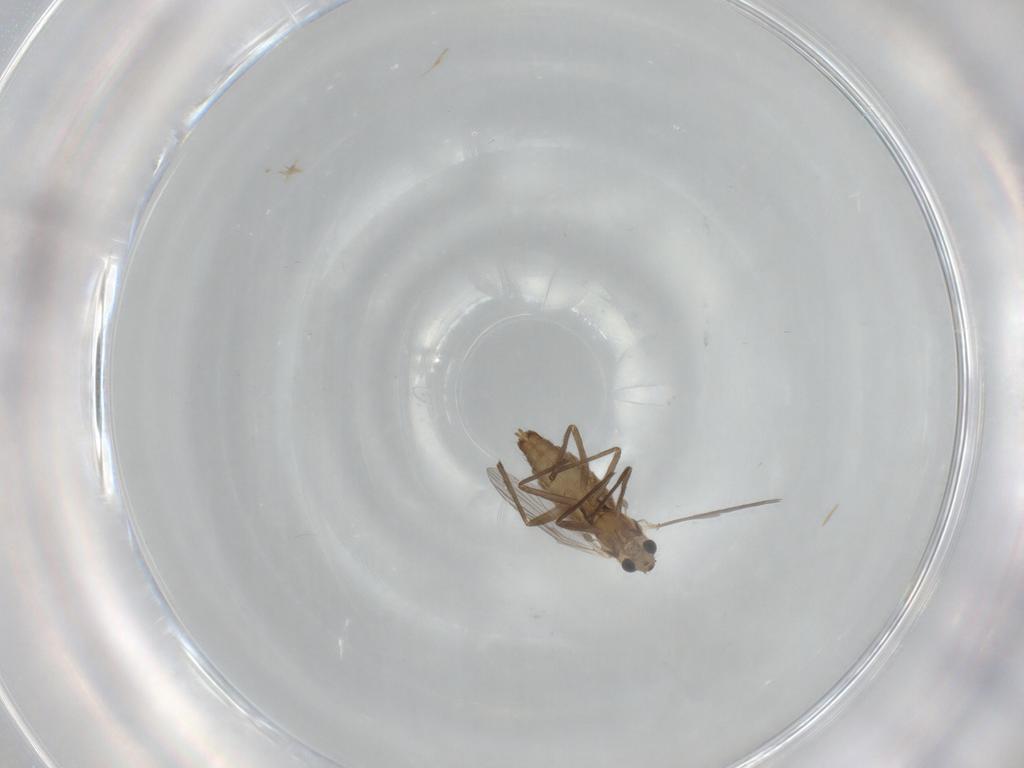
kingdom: Animalia
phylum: Arthropoda
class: Insecta
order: Diptera
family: Chironomidae
